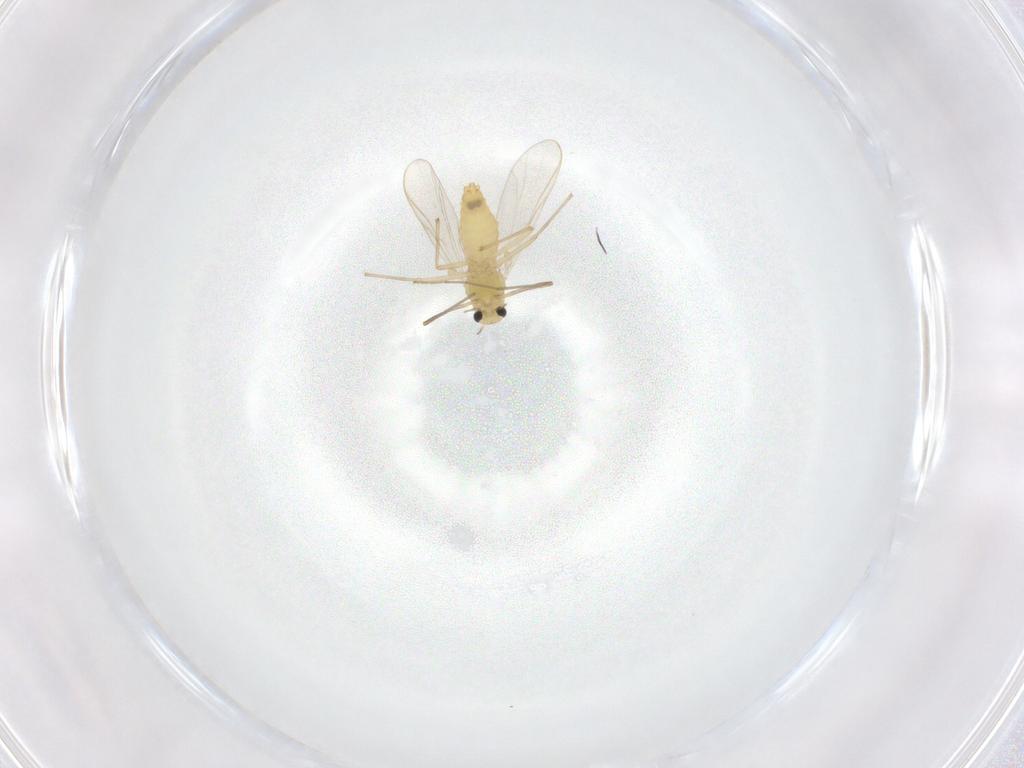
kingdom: Animalia
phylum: Arthropoda
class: Insecta
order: Diptera
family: Chironomidae
